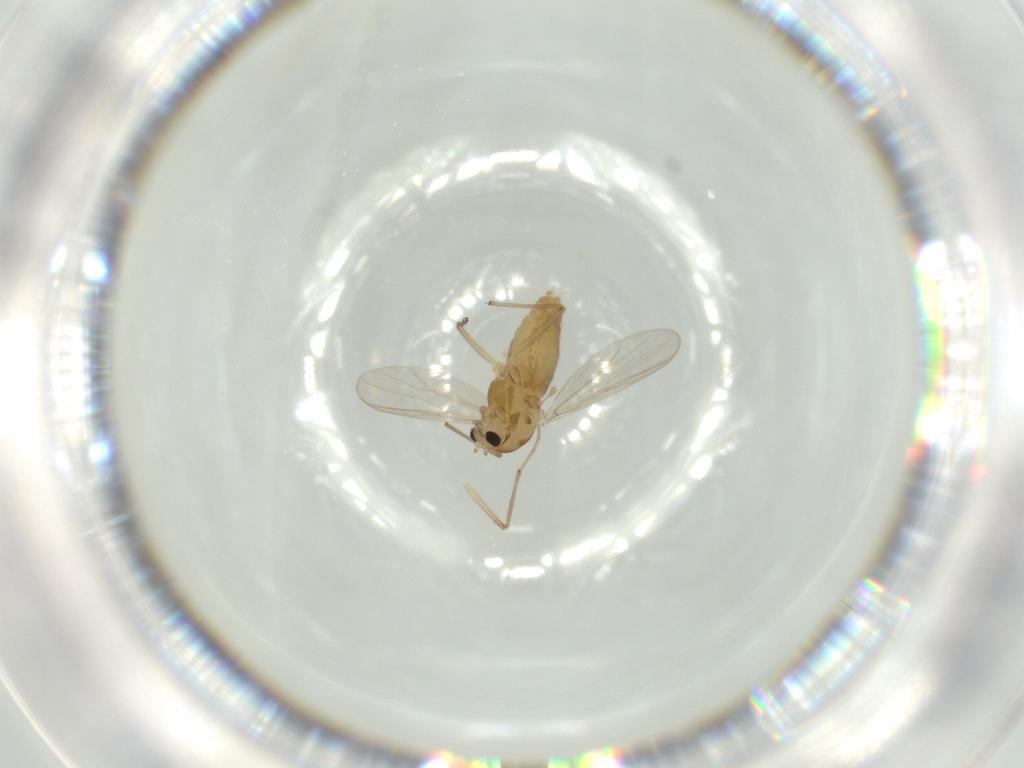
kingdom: Animalia
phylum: Arthropoda
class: Insecta
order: Diptera
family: Chironomidae
